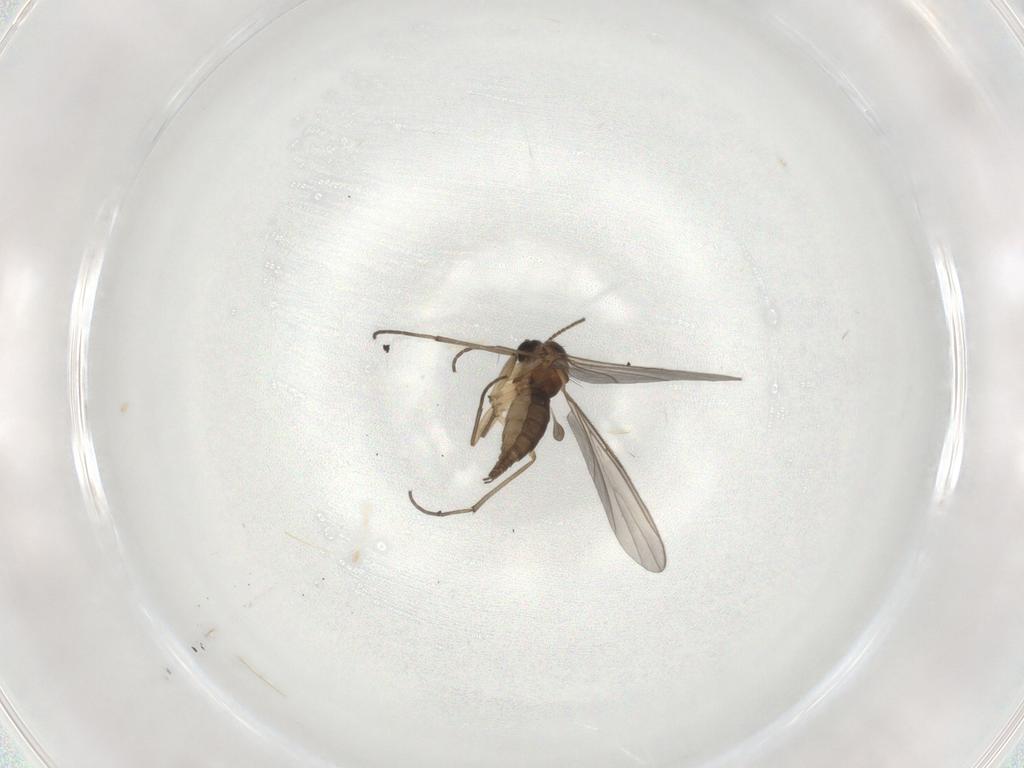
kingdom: Animalia
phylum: Arthropoda
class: Insecta
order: Diptera
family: Sciaridae
